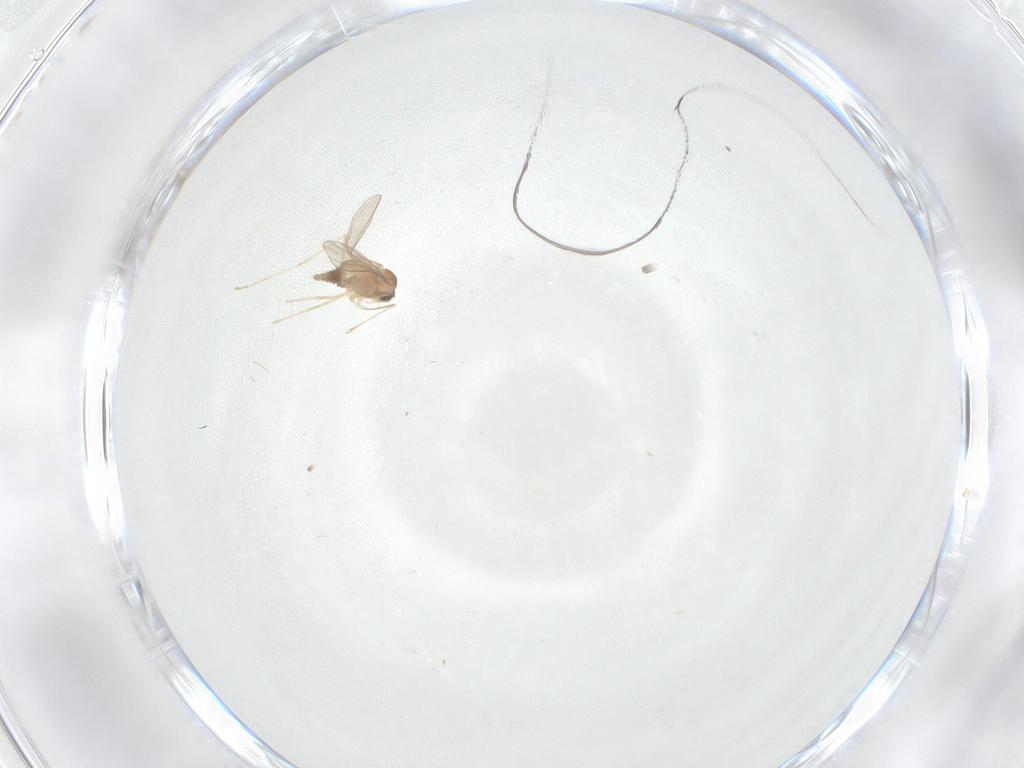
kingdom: Animalia
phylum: Arthropoda
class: Insecta
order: Diptera
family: Cecidomyiidae
